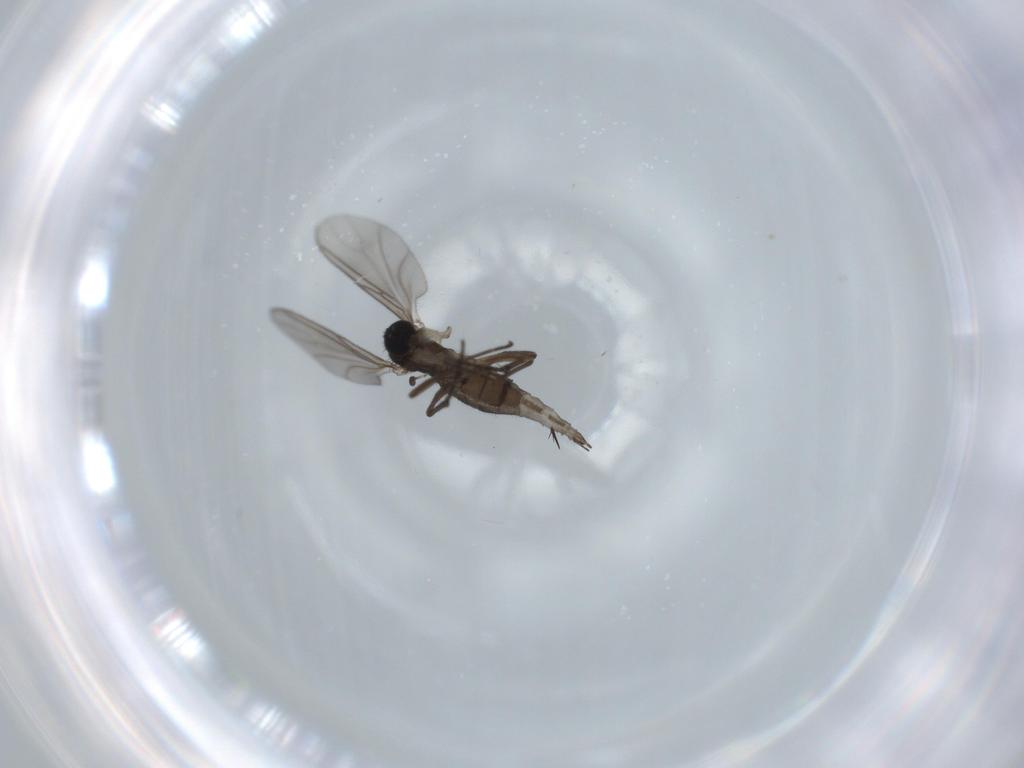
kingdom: Animalia
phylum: Arthropoda
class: Insecta
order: Diptera
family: Sciaridae
